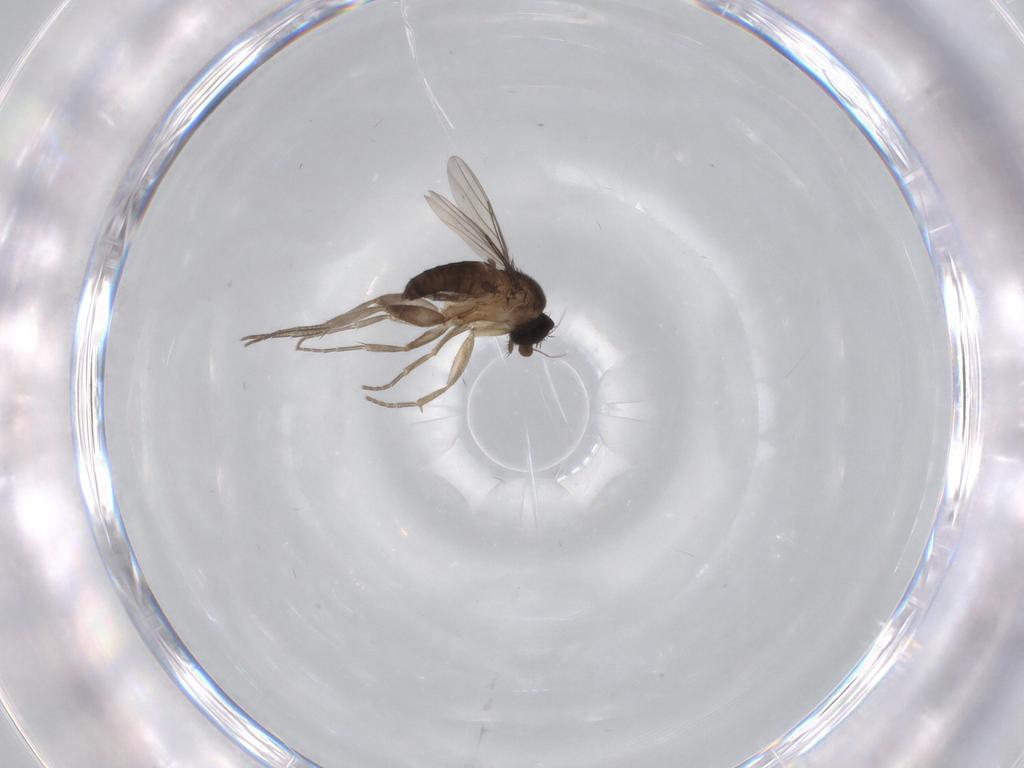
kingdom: Animalia
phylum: Arthropoda
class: Insecta
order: Diptera
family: Phoridae
